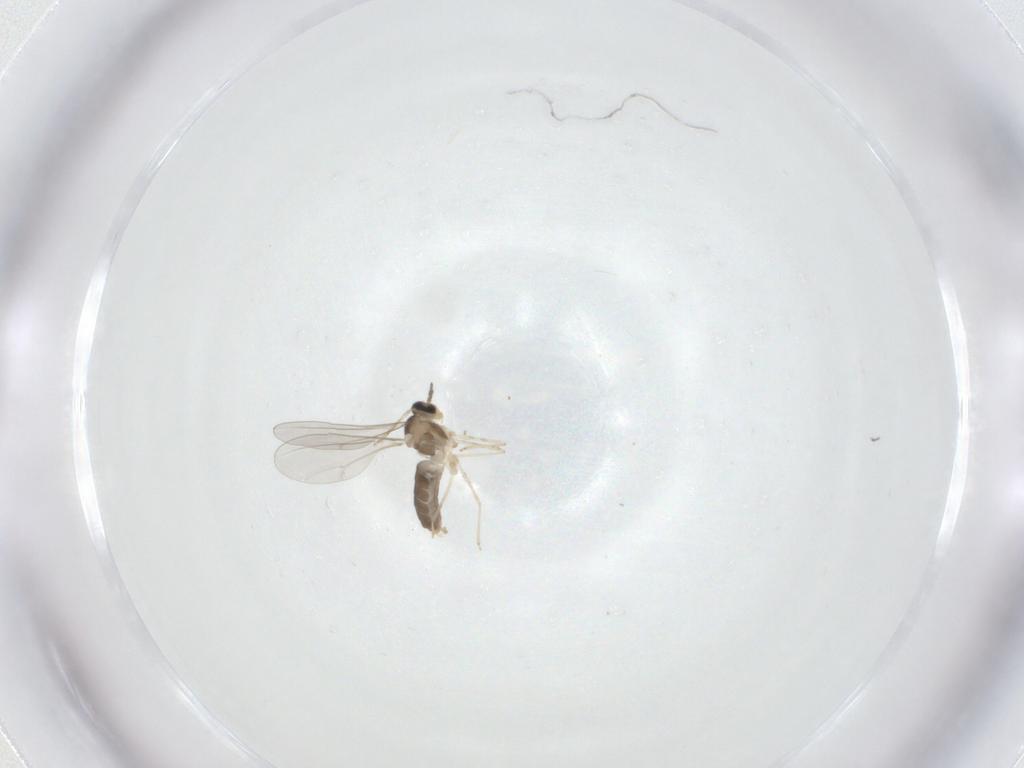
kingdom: Animalia
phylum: Arthropoda
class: Insecta
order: Diptera
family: Cecidomyiidae
